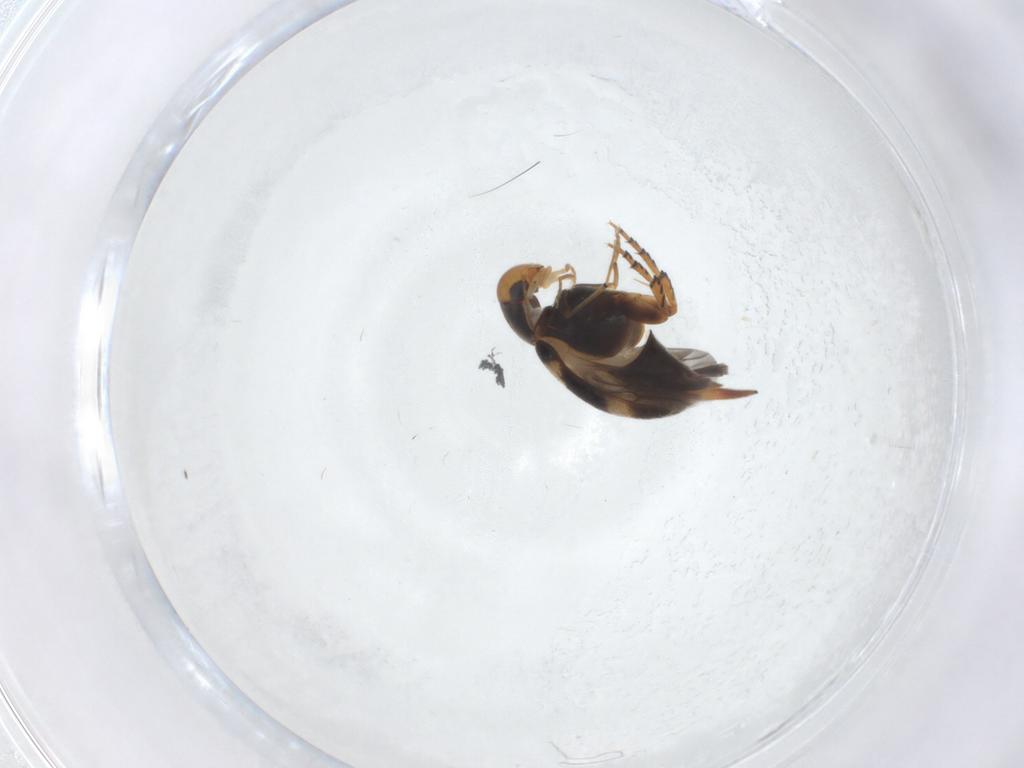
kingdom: Animalia
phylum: Arthropoda
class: Insecta
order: Coleoptera
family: Mordellidae
